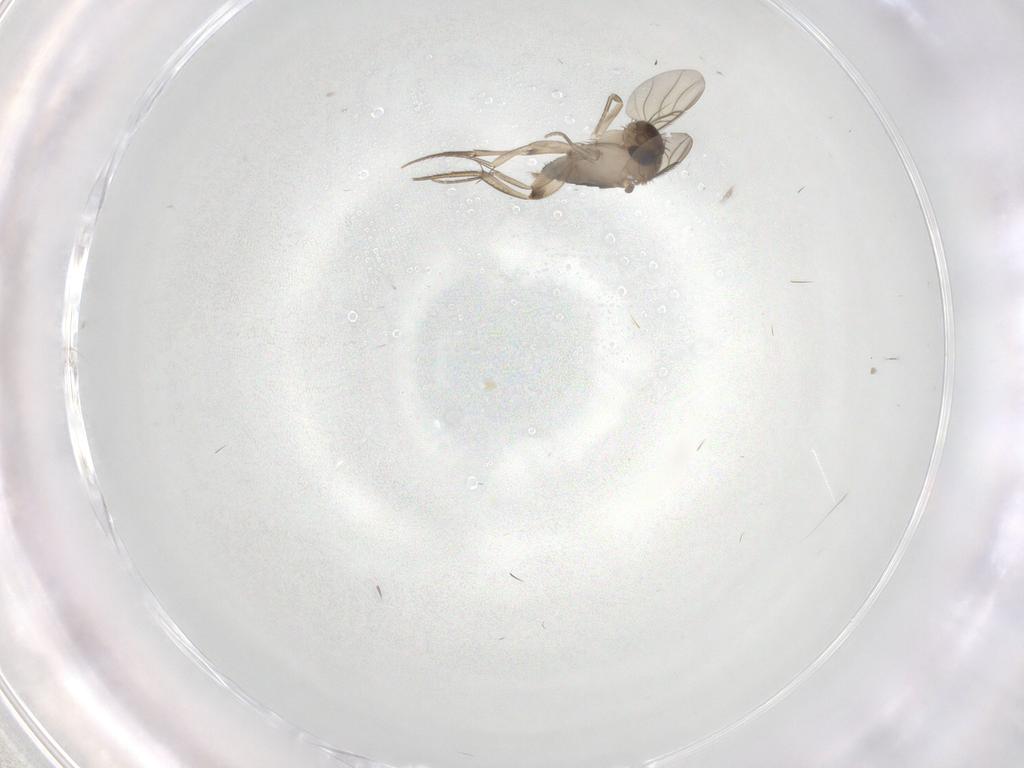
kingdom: Animalia
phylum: Arthropoda
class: Insecta
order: Diptera
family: Phoridae
